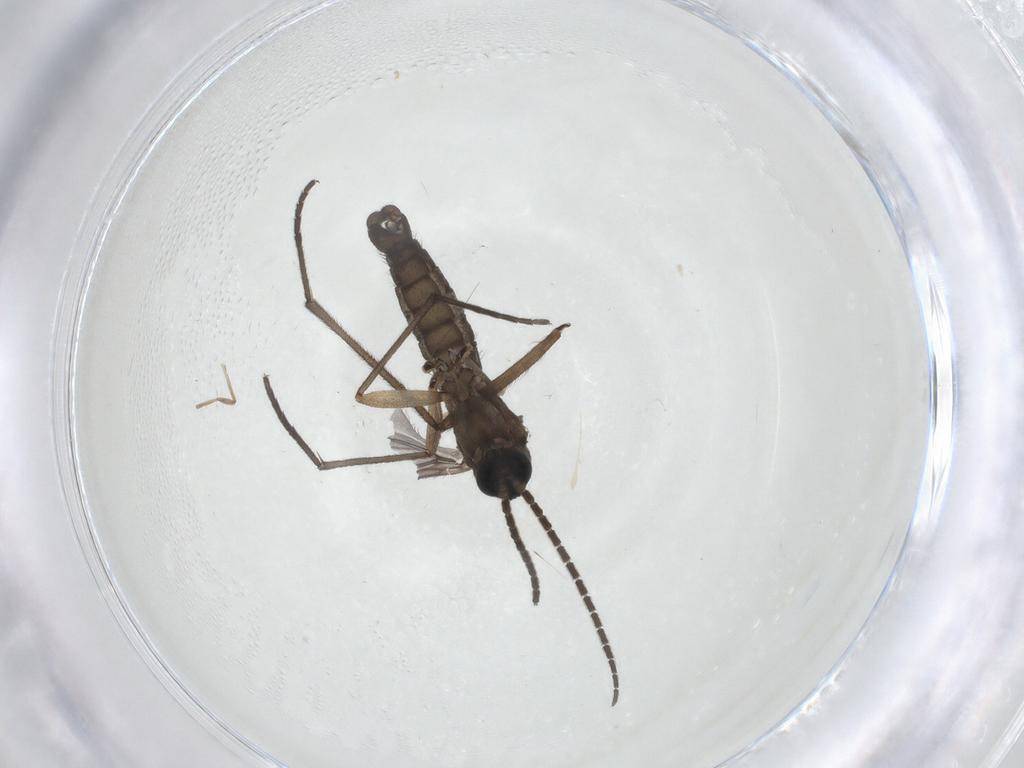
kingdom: Animalia
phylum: Arthropoda
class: Insecta
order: Diptera
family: Sciaridae
